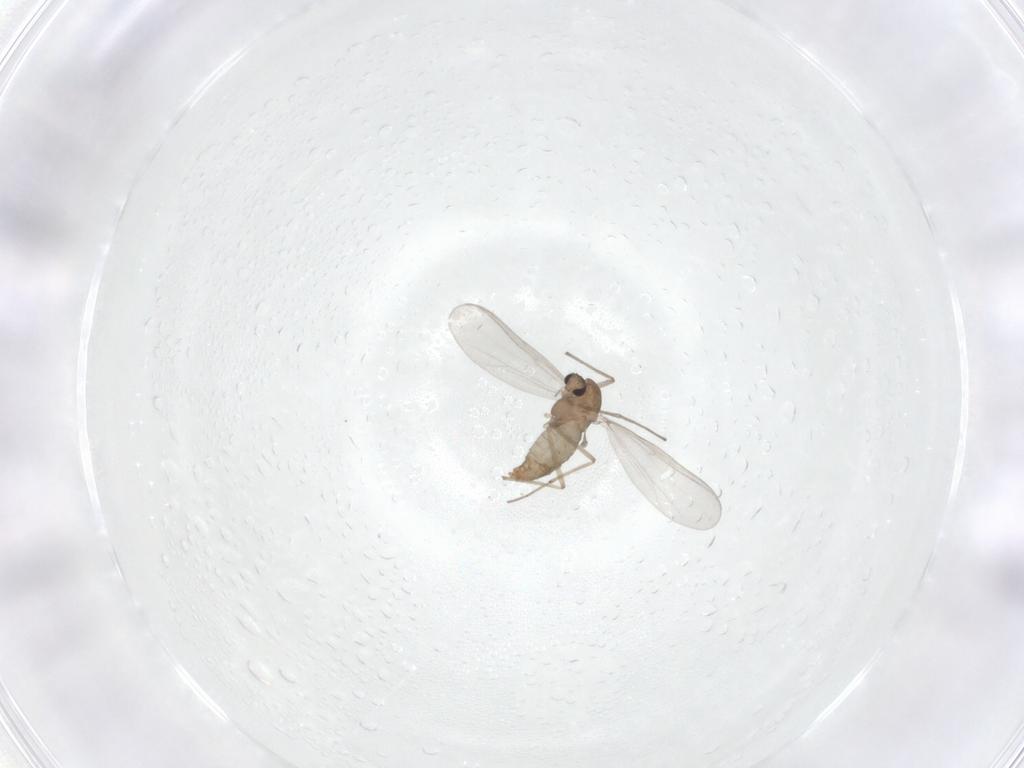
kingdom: Animalia
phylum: Arthropoda
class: Insecta
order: Diptera
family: Chironomidae
